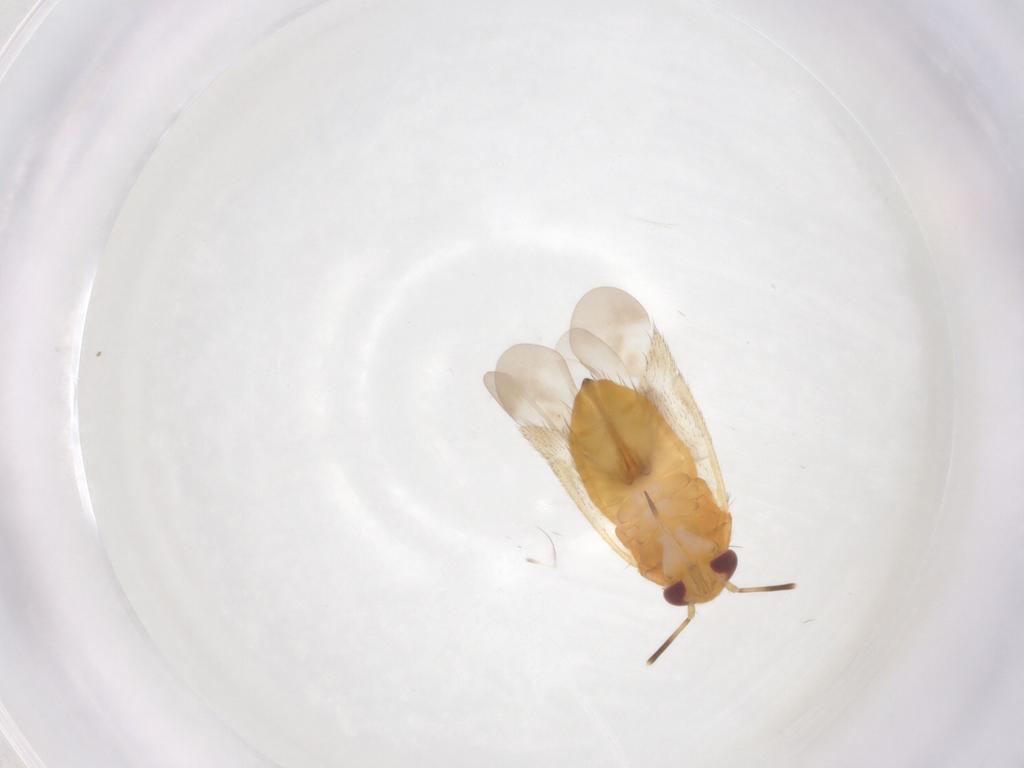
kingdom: Animalia
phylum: Arthropoda
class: Insecta
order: Hemiptera
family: Miridae
